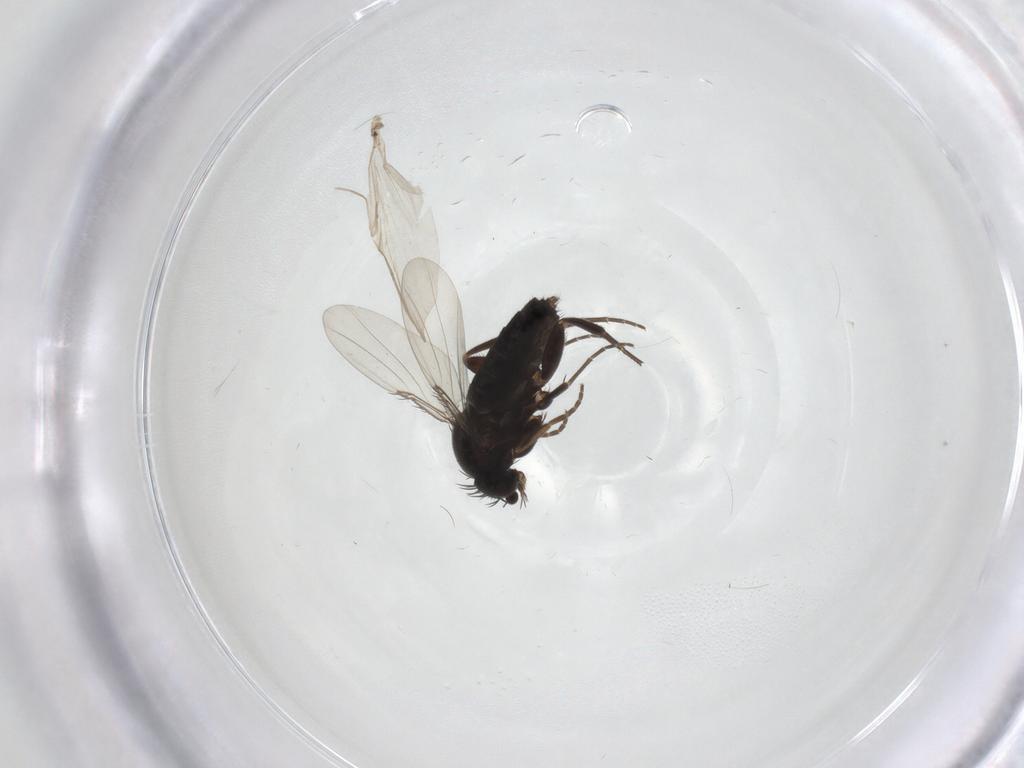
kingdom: Animalia
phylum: Arthropoda
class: Insecta
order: Diptera
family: Phoridae
